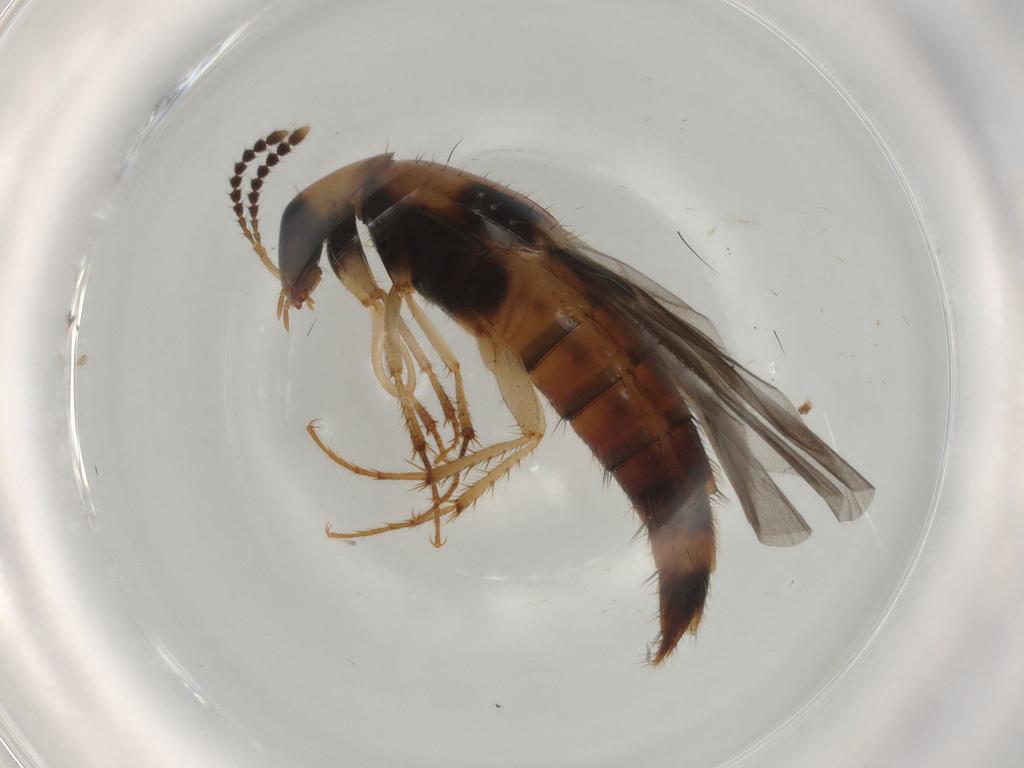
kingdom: Animalia
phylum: Arthropoda
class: Insecta
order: Coleoptera
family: Staphylinidae
